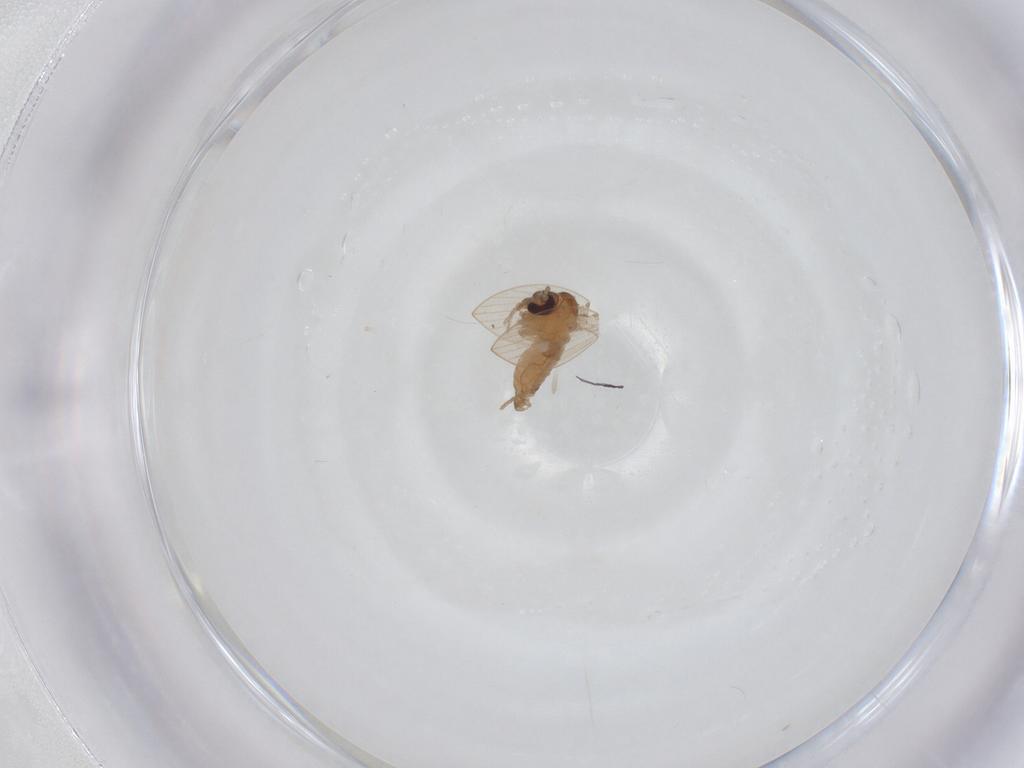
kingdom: Animalia
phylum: Arthropoda
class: Insecta
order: Diptera
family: Psychodidae
